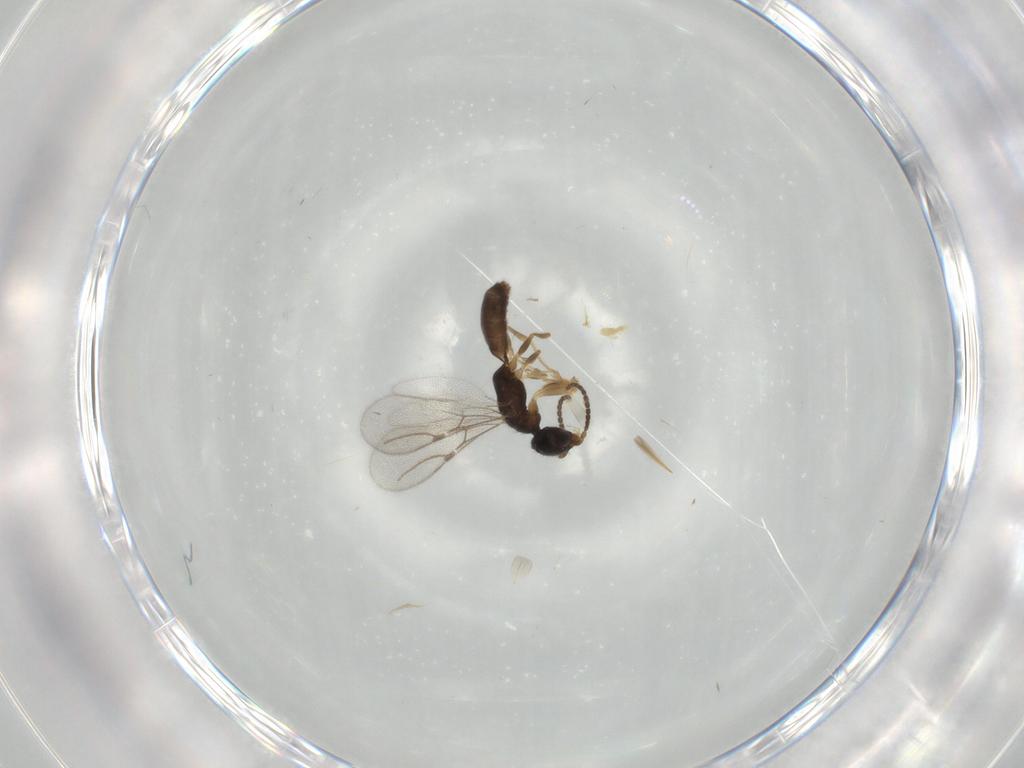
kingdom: Animalia
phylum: Arthropoda
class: Insecta
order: Hymenoptera
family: Bethylidae
